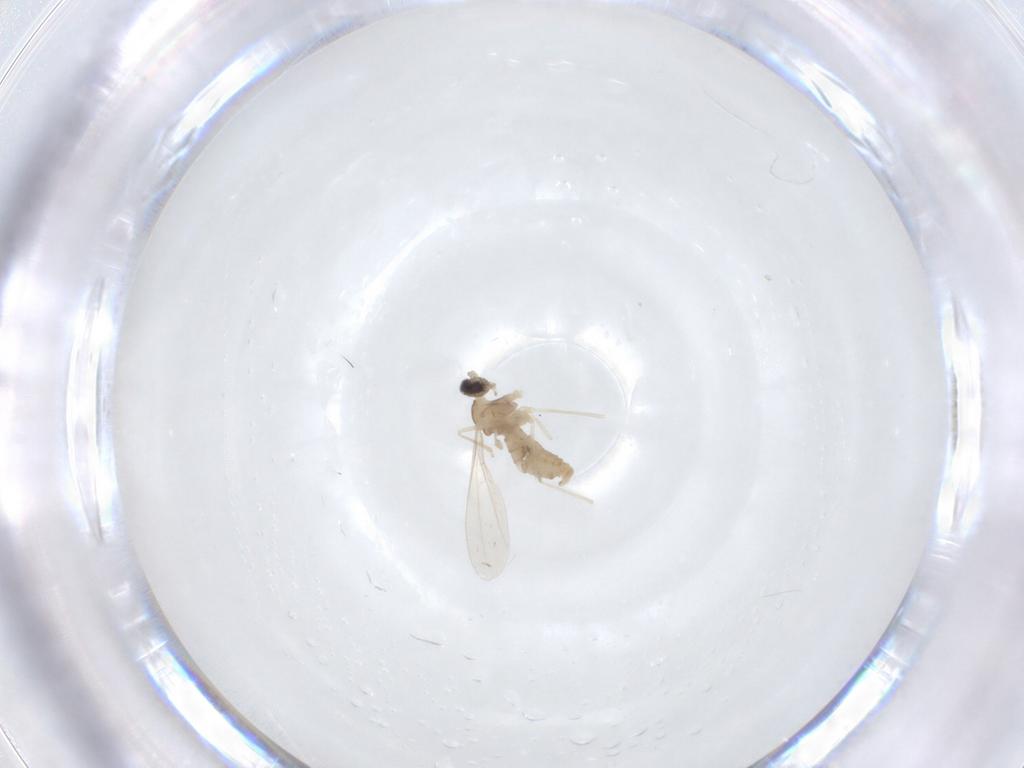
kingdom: Animalia
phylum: Arthropoda
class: Insecta
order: Diptera
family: Cecidomyiidae
